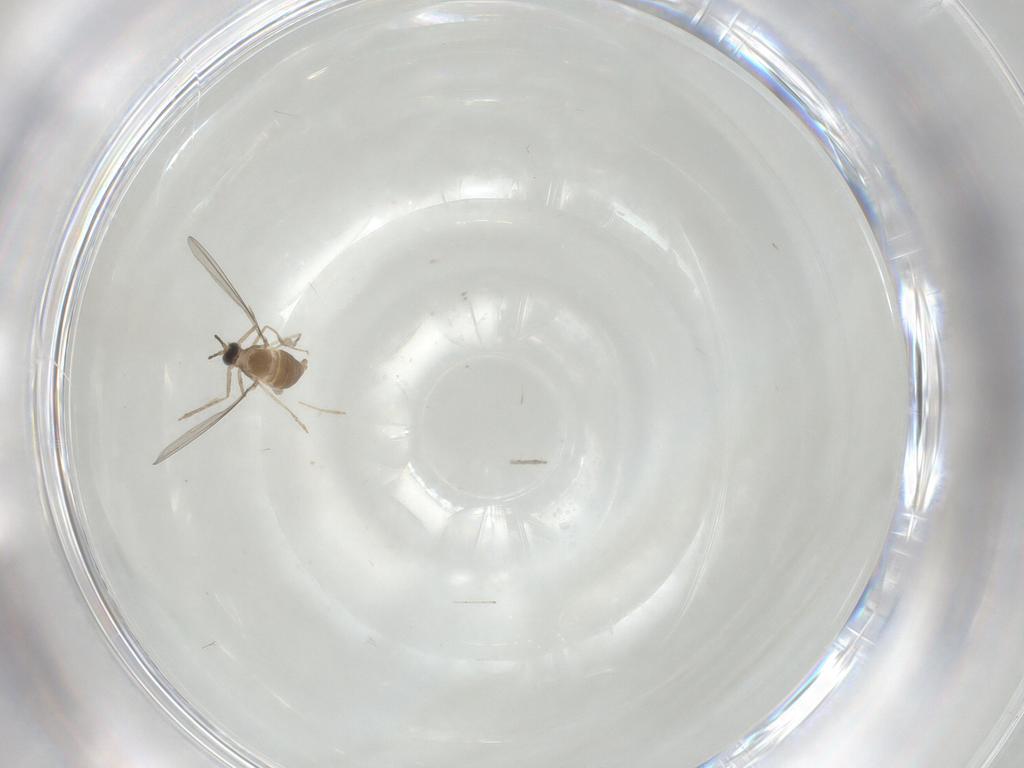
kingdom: Animalia
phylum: Arthropoda
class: Insecta
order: Diptera
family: Cecidomyiidae
